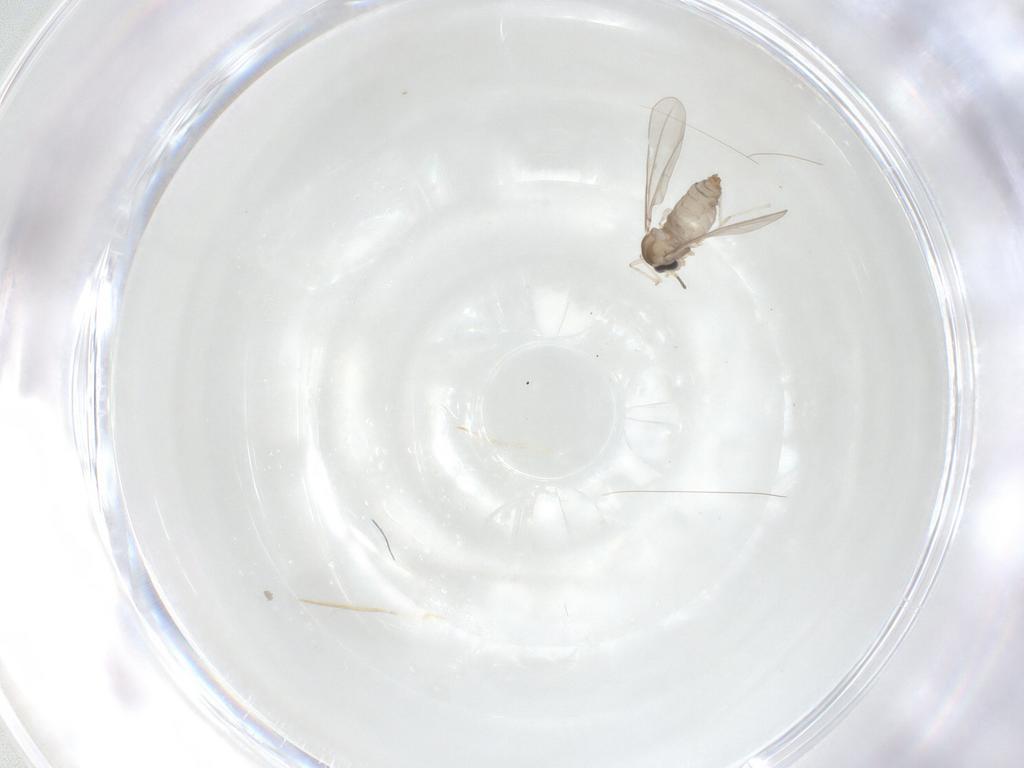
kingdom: Animalia
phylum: Arthropoda
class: Insecta
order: Diptera
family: Cecidomyiidae
